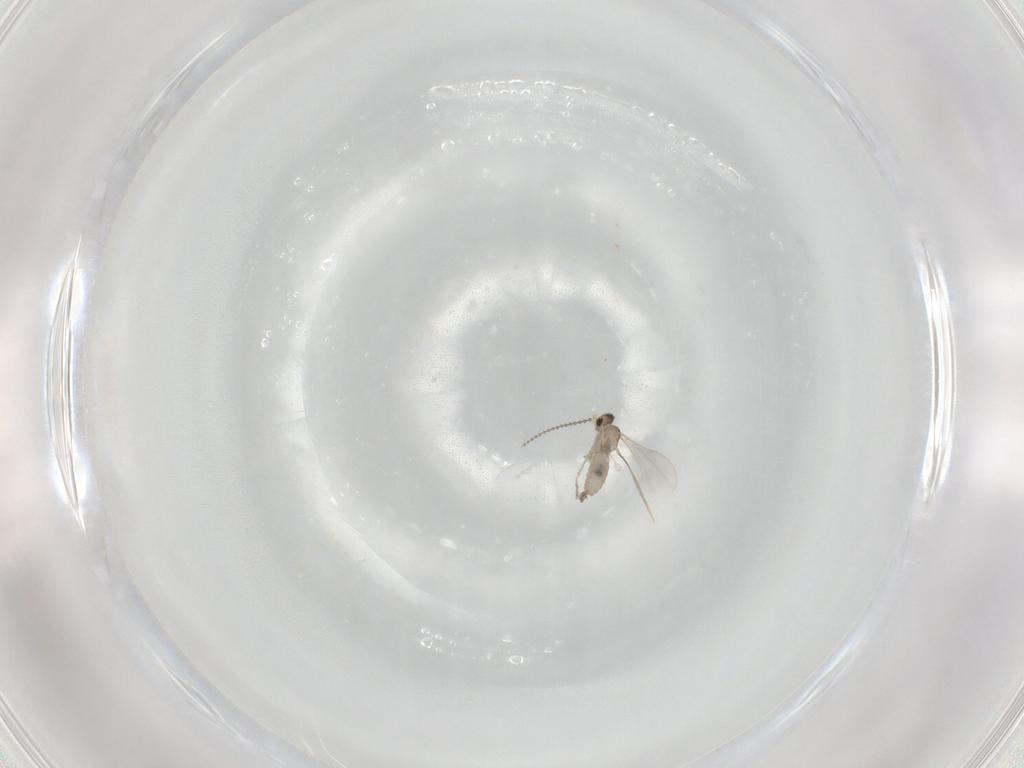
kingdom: Animalia
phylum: Arthropoda
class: Insecta
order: Diptera
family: Cecidomyiidae
